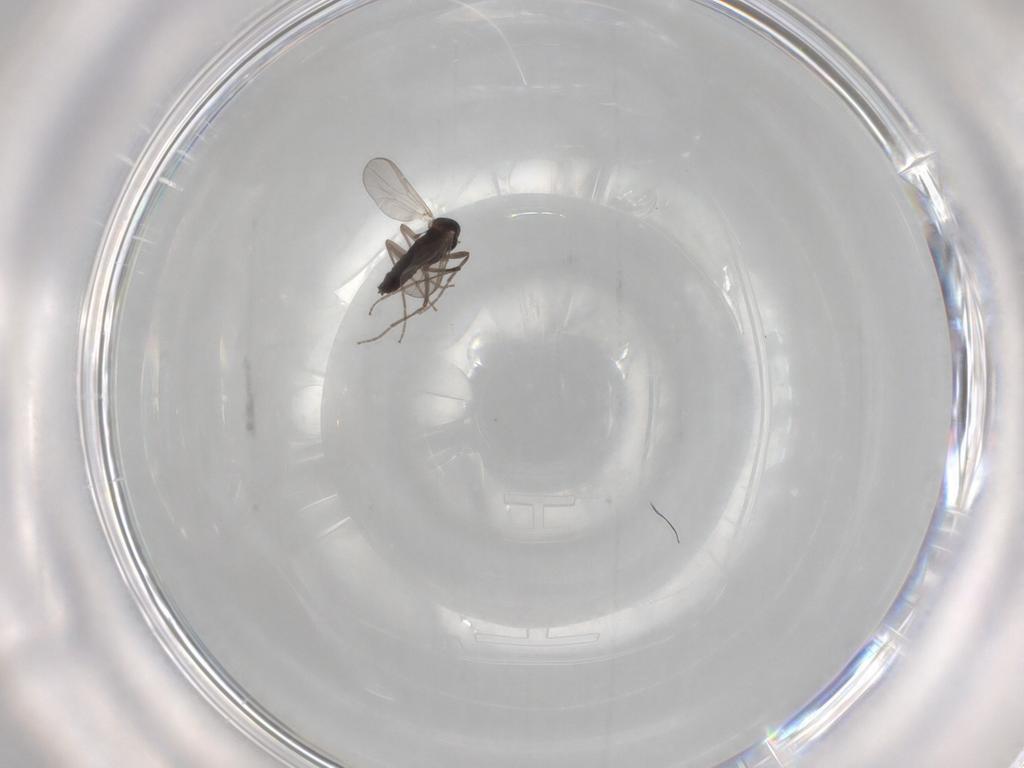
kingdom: Animalia
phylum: Arthropoda
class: Insecta
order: Diptera
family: Chironomidae
